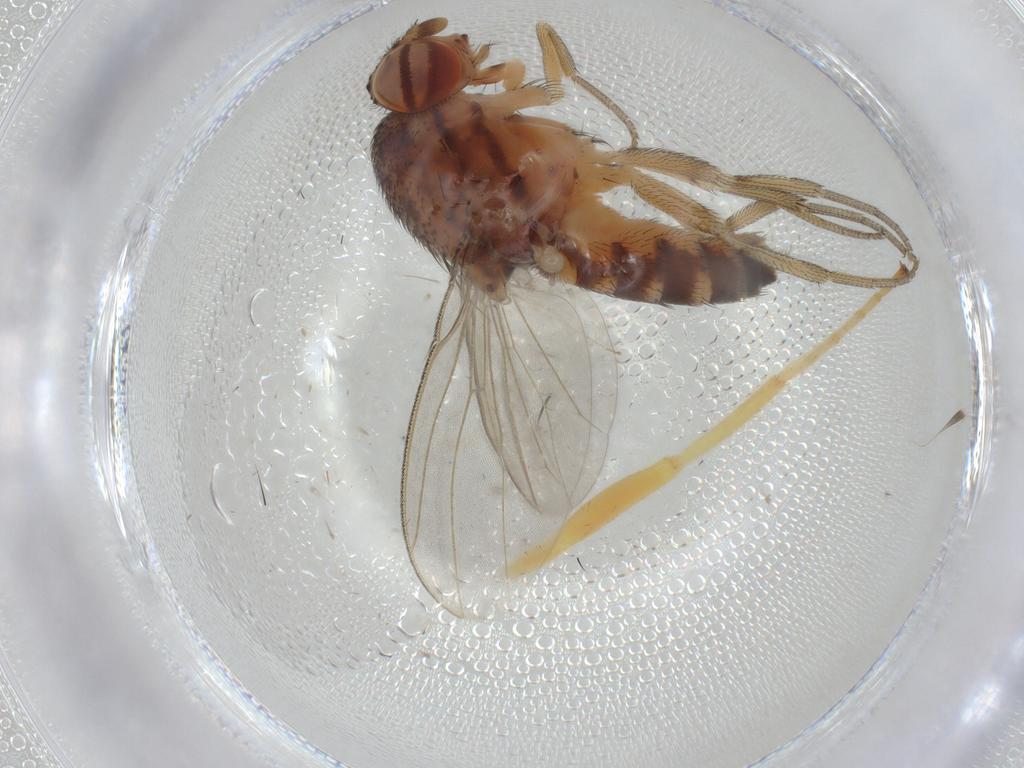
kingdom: Animalia
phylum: Arthropoda
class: Insecta
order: Diptera
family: Drosophilidae
